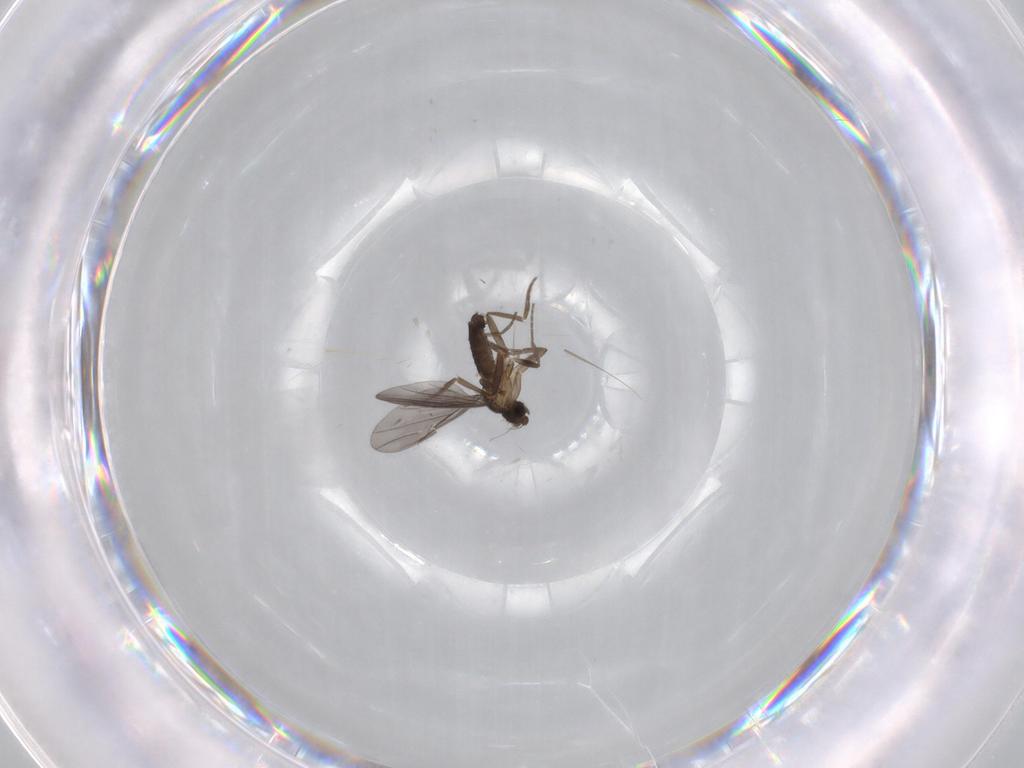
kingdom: Animalia
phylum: Arthropoda
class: Insecta
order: Diptera
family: Phoridae
